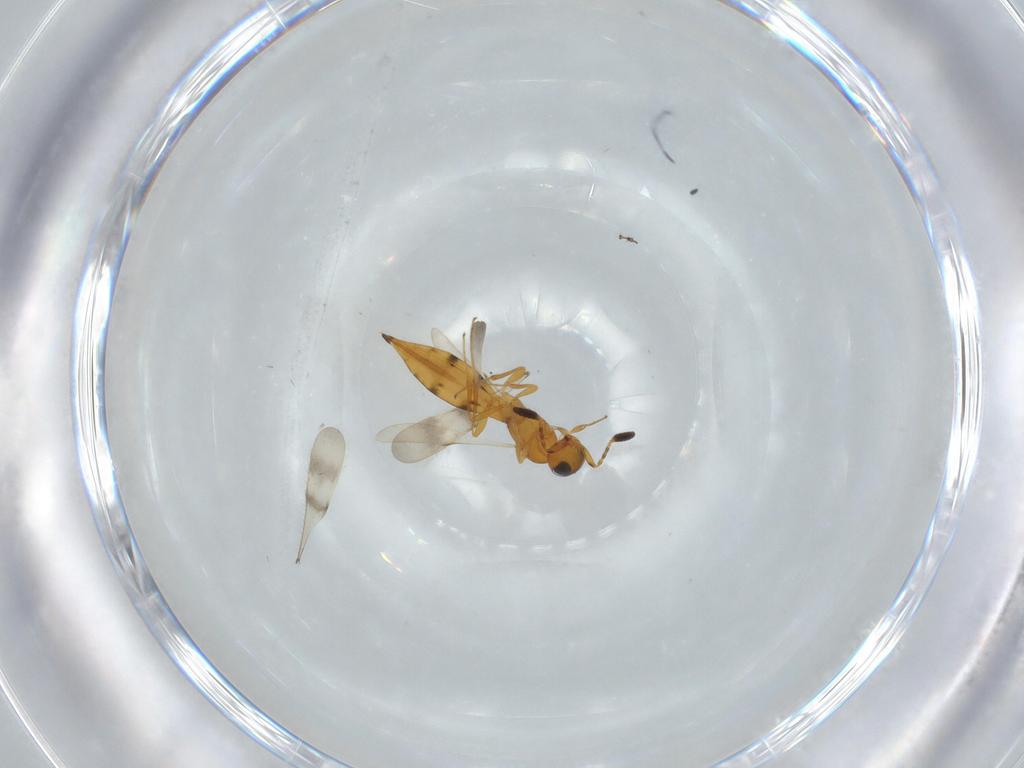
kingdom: Animalia
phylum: Arthropoda
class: Insecta
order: Hymenoptera
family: Scelionidae
